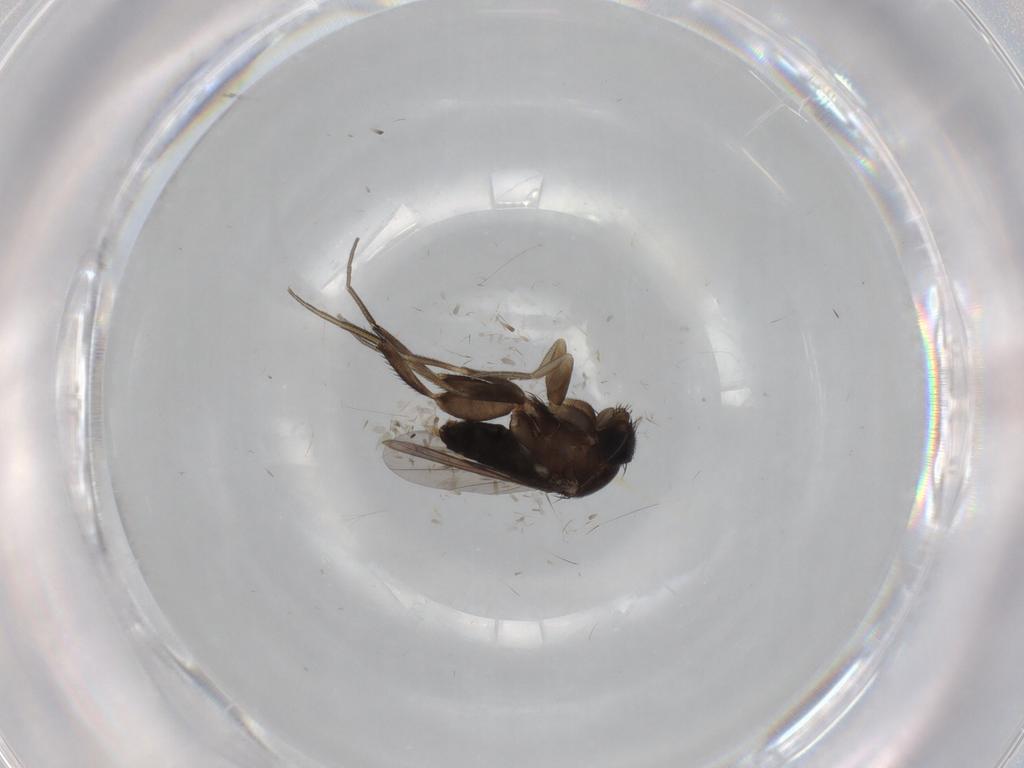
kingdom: Animalia
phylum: Arthropoda
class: Insecta
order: Diptera
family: Phoridae
